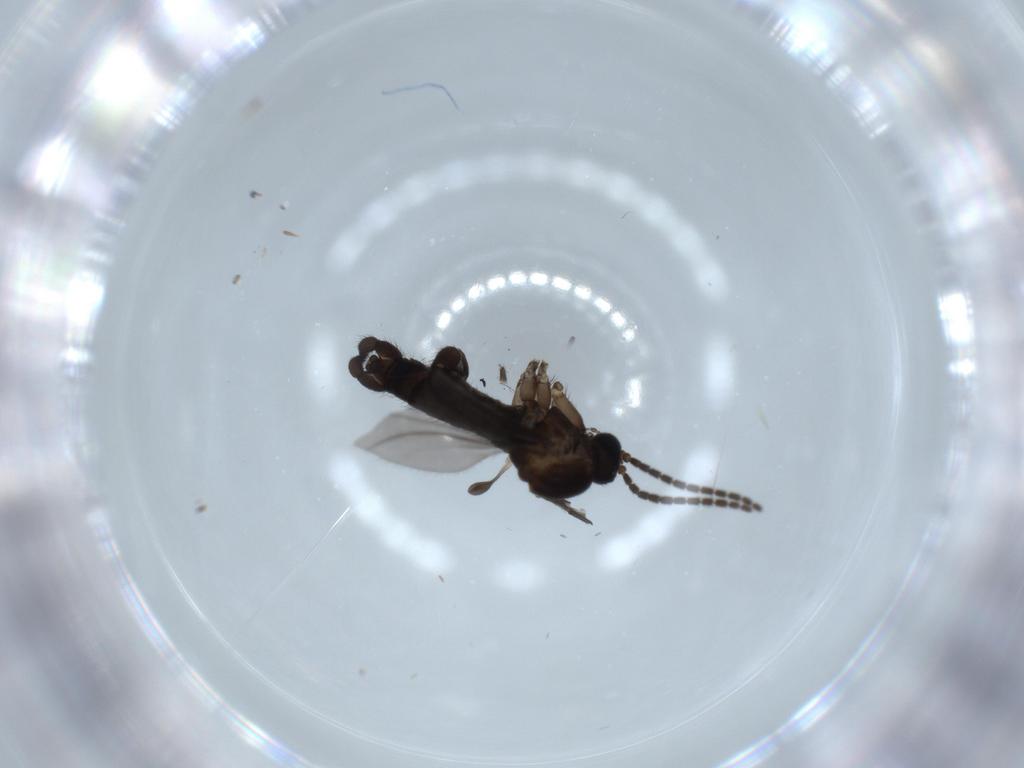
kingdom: Animalia
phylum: Arthropoda
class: Insecta
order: Diptera
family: Sciaridae
